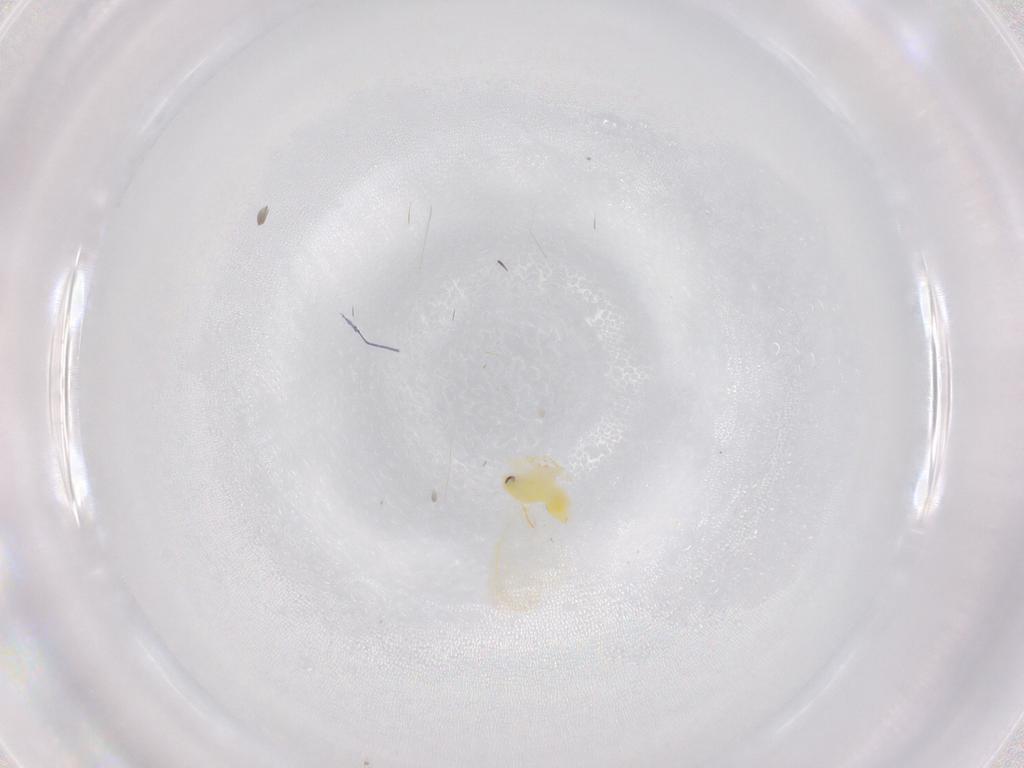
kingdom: Animalia
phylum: Arthropoda
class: Insecta
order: Hemiptera
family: Aleyrodidae
